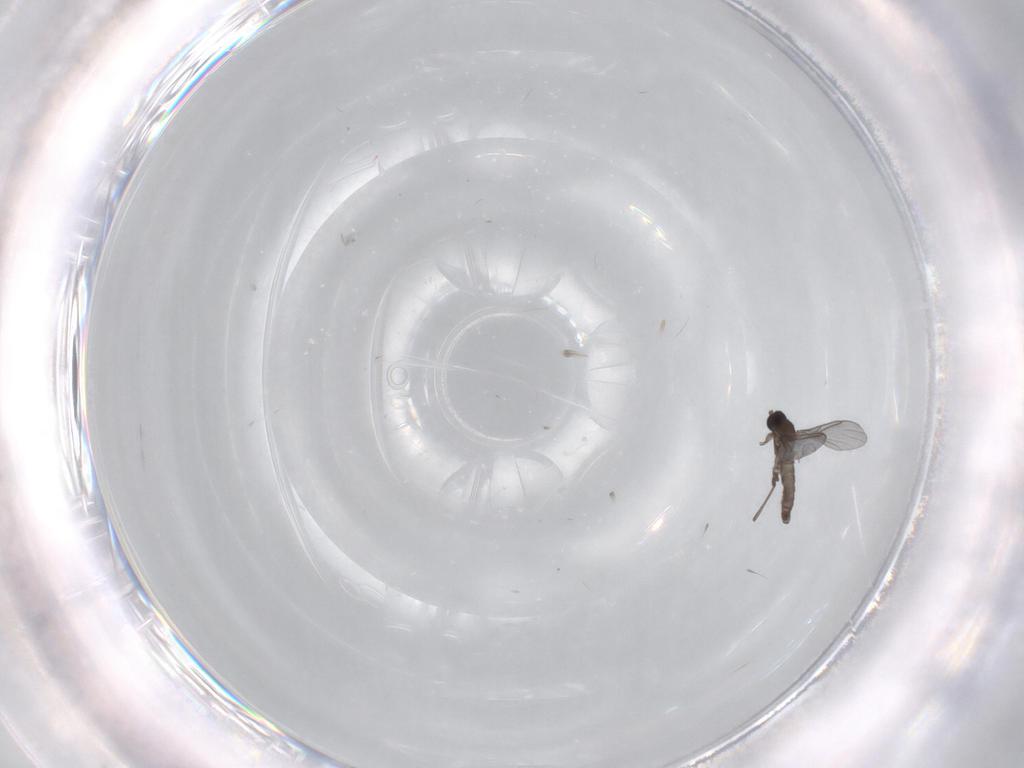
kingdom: Animalia
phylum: Arthropoda
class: Insecta
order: Diptera
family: Sciaridae
